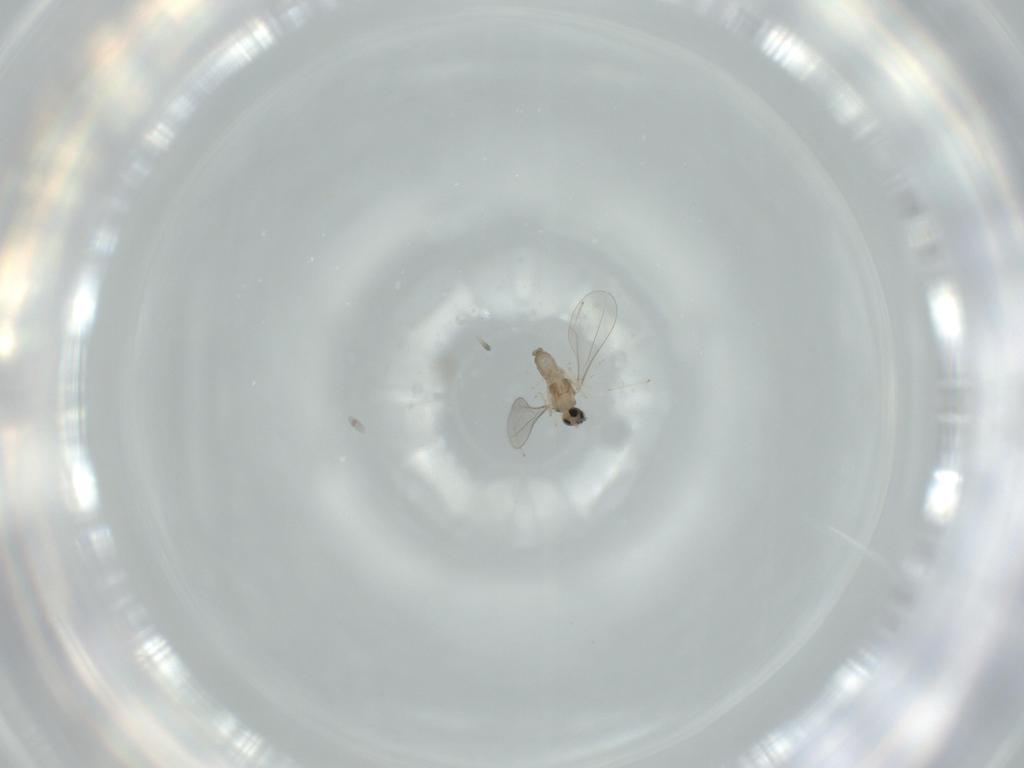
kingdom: Animalia
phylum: Arthropoda
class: Insecta
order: Diptera
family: Cecidomyiidae
